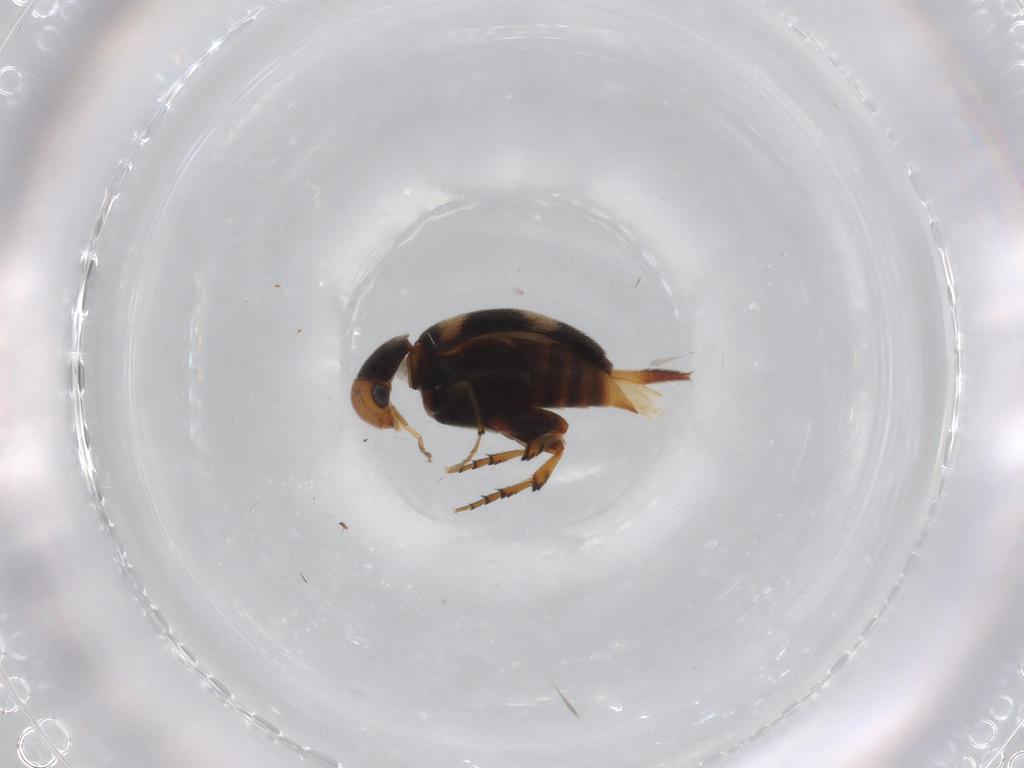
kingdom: Animalia
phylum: Arthropoda
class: Insecta
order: Coleoptera
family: Mordellidae
